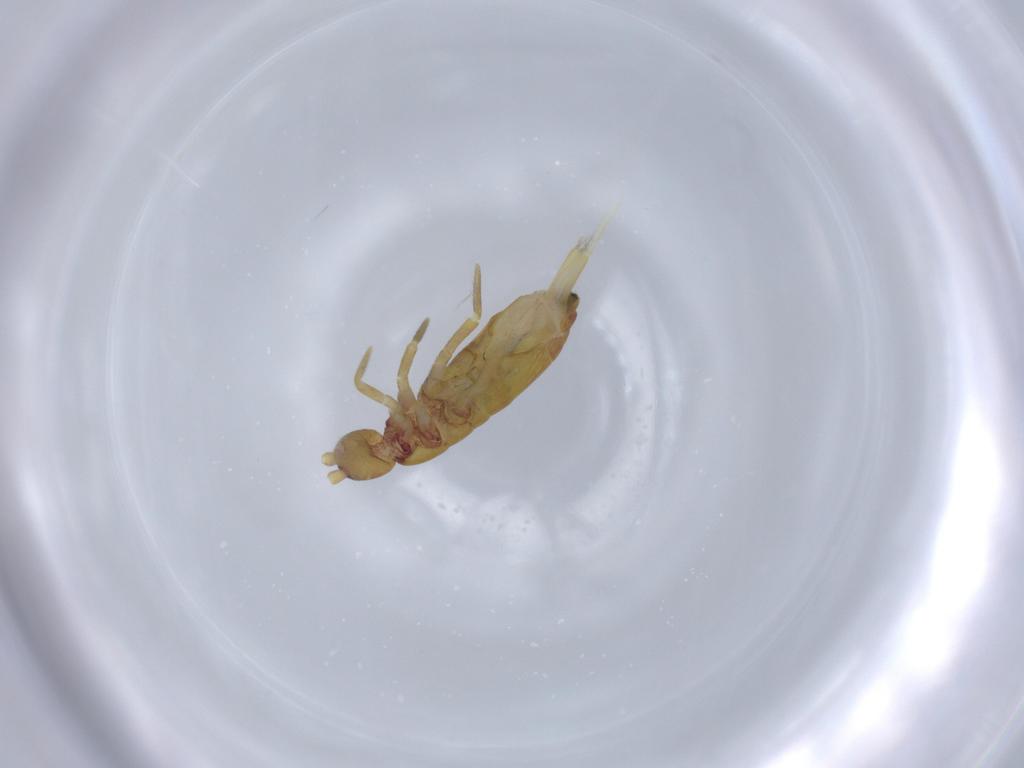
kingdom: Animalia
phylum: Arthropoda
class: Collembola
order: Entomobryomorpha
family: Tomoceridae
